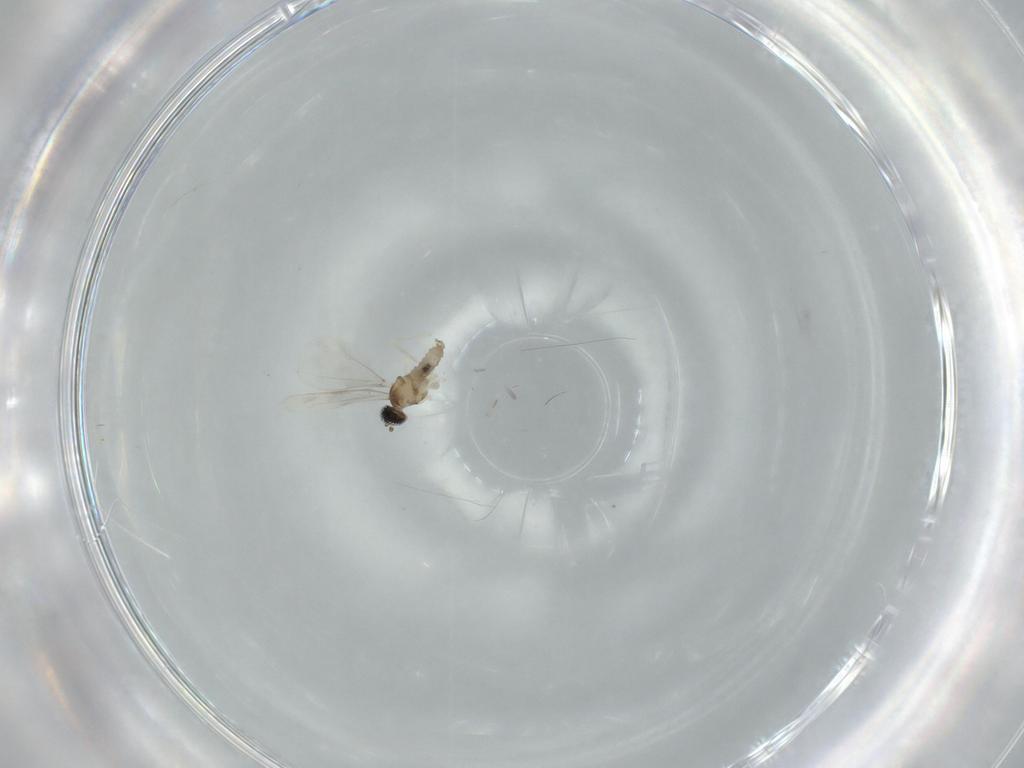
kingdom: Animalia
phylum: Arthropoda
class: Insecta
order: Diptera
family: Cecidomyiidae
